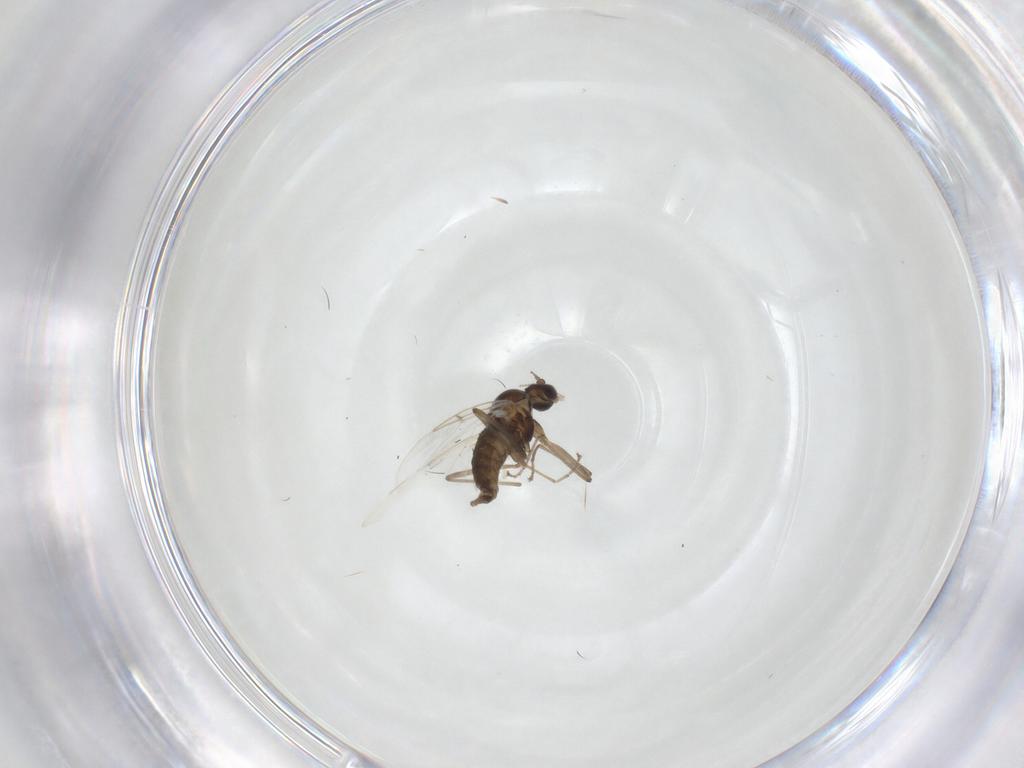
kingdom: Animalia
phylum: Arthropoda
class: Insecta
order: Diptera
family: Cecidomyiidae
